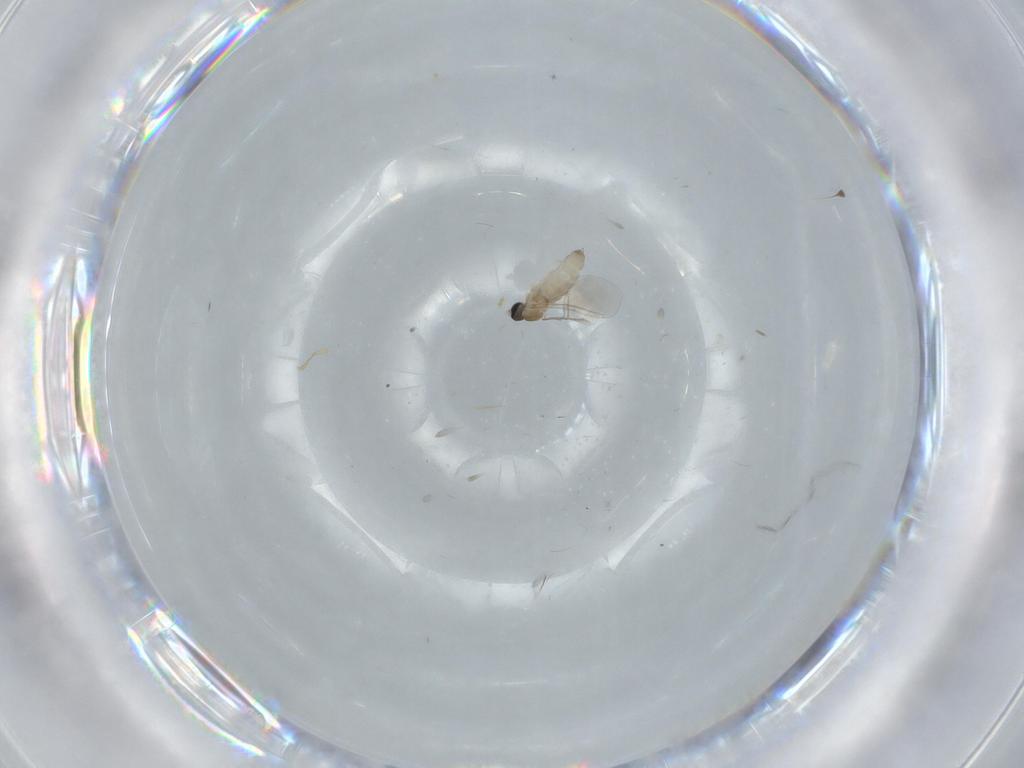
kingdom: Animalia
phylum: Arthropoda
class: Insecta
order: Diptera
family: Cecidomyiidae
